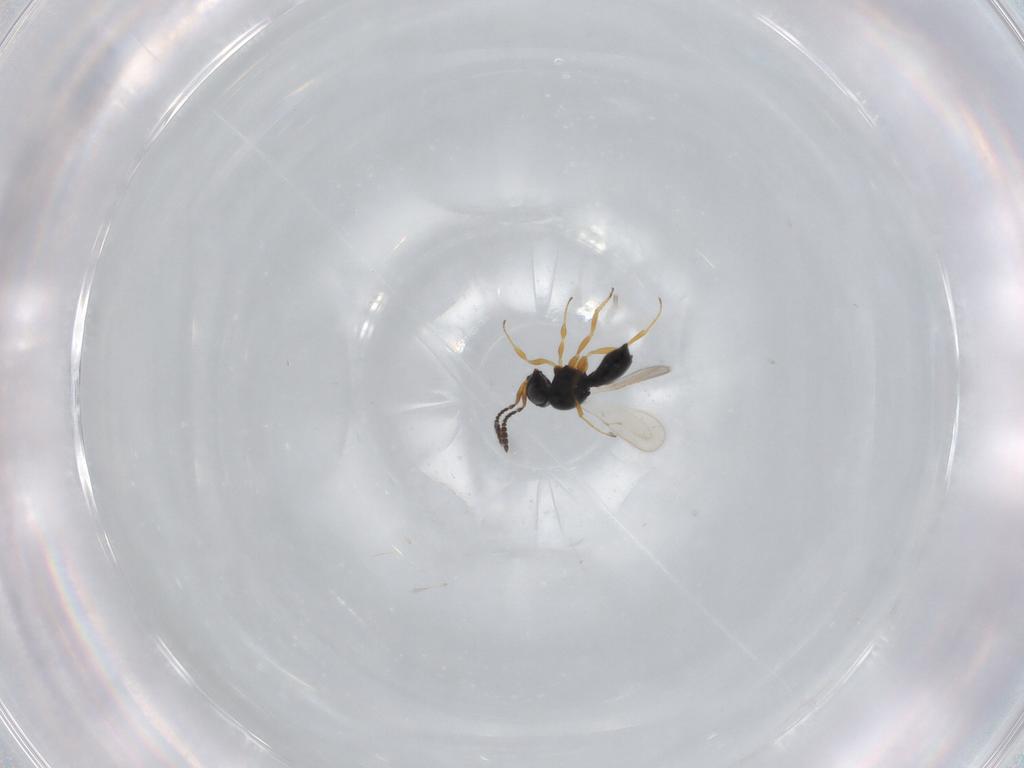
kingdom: Animalia
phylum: Arthropoda
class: Insecta
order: Hymenoptera
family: Scelionidae
